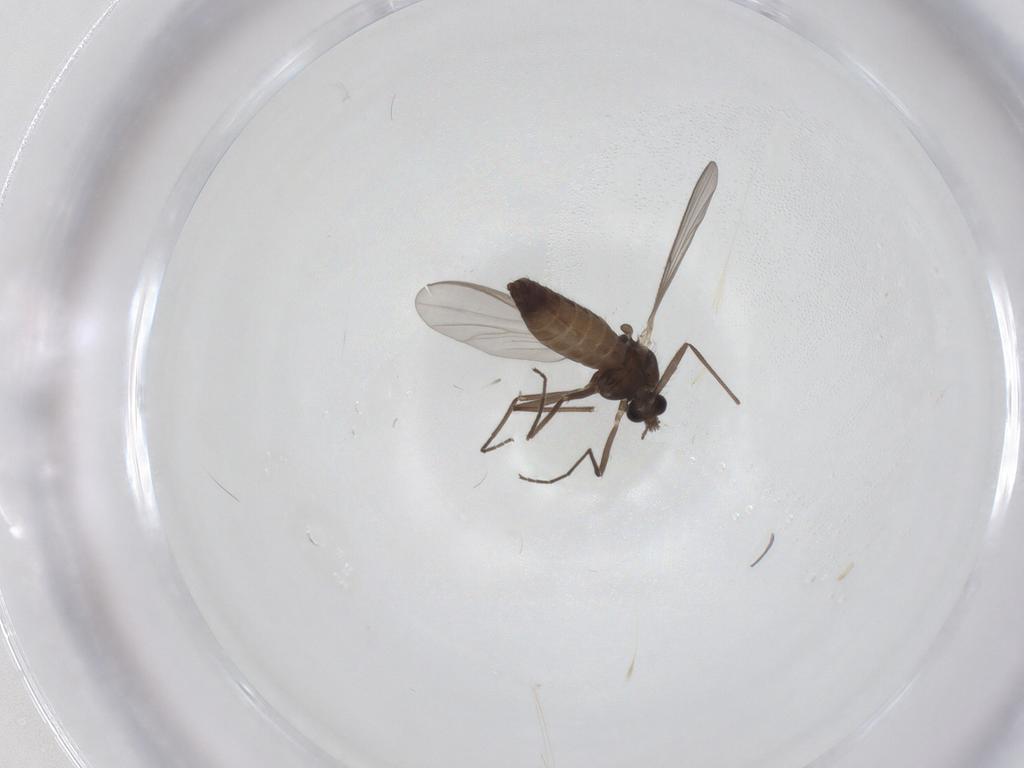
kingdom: Animalia
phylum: Arthropoda
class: Insecta
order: Diptera
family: Chironomidae
